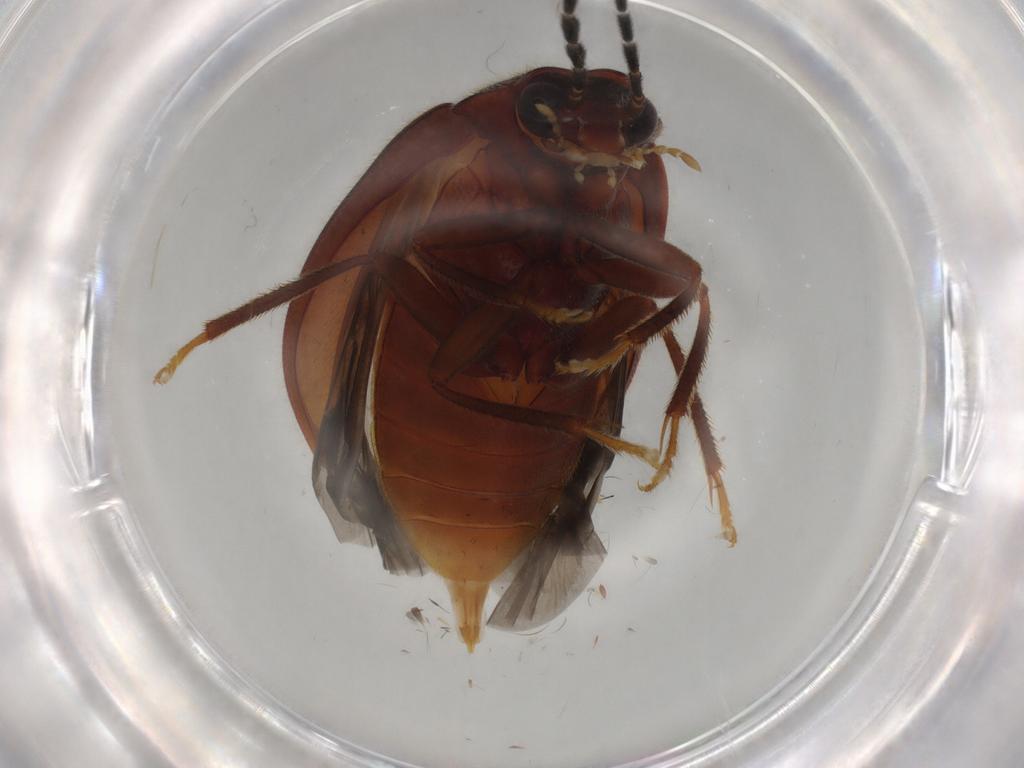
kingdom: Animalia
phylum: Arthropoda
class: Insecta
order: Coleoptera
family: Ptilodactylidae
